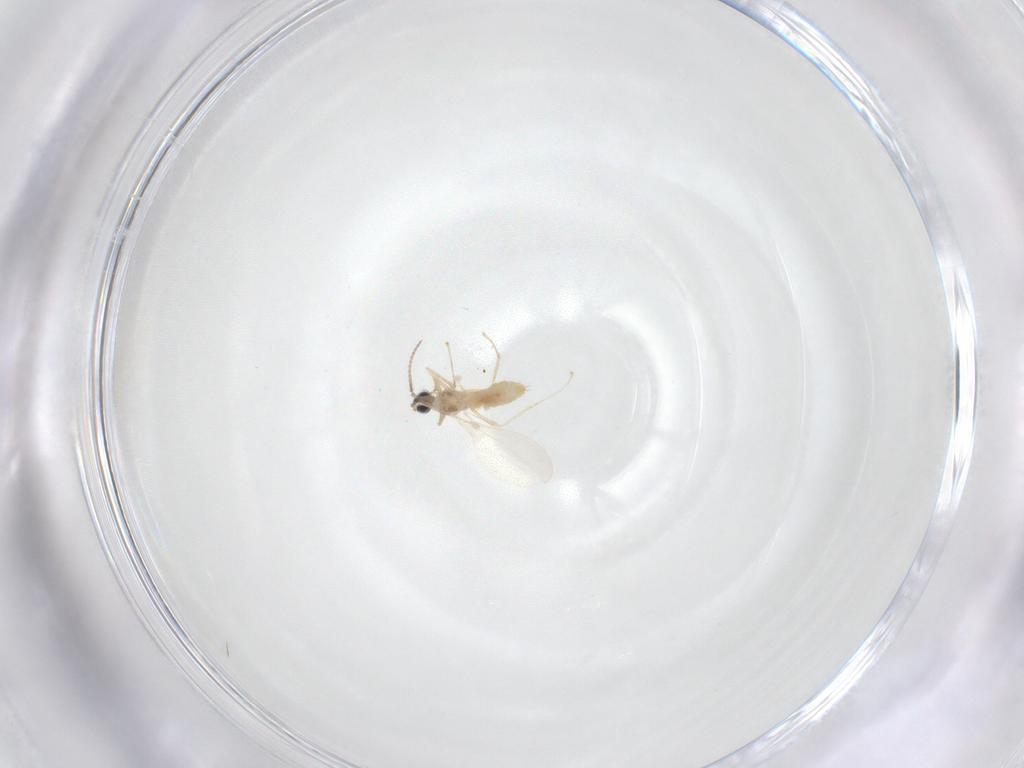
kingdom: Animalia
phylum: Arthropoda
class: Insecta
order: Diptera
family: Cecidomyiidae
